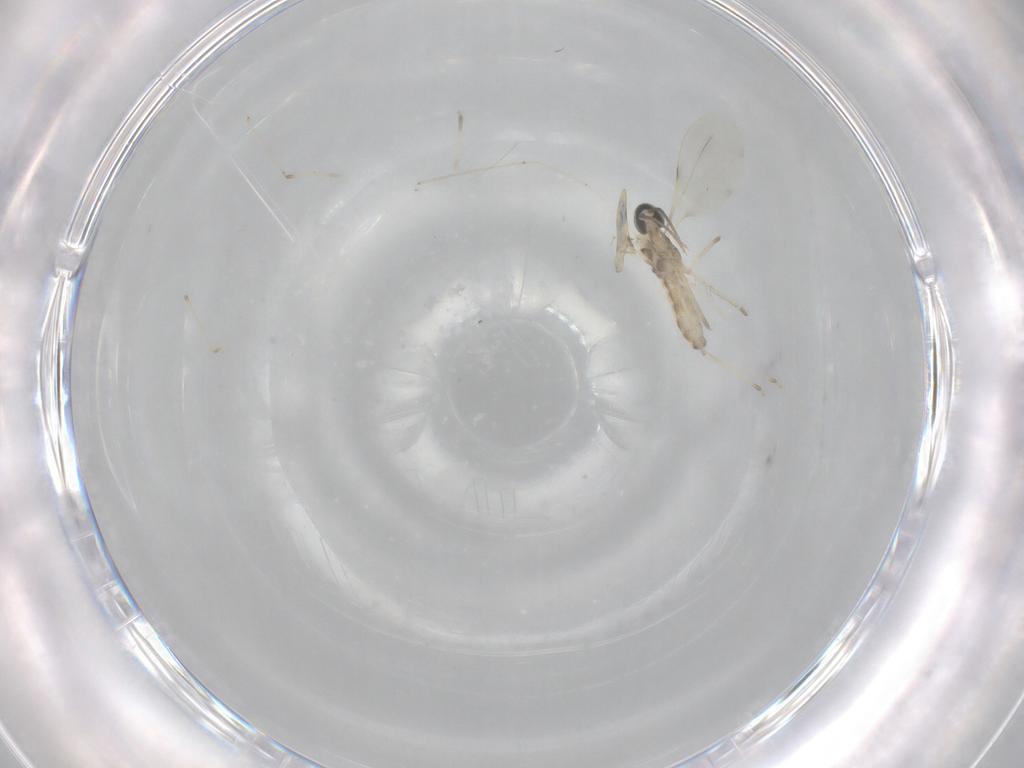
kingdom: Animalia
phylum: Arthropoda
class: Insecta
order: Diptera
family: Cecidomyiidae
